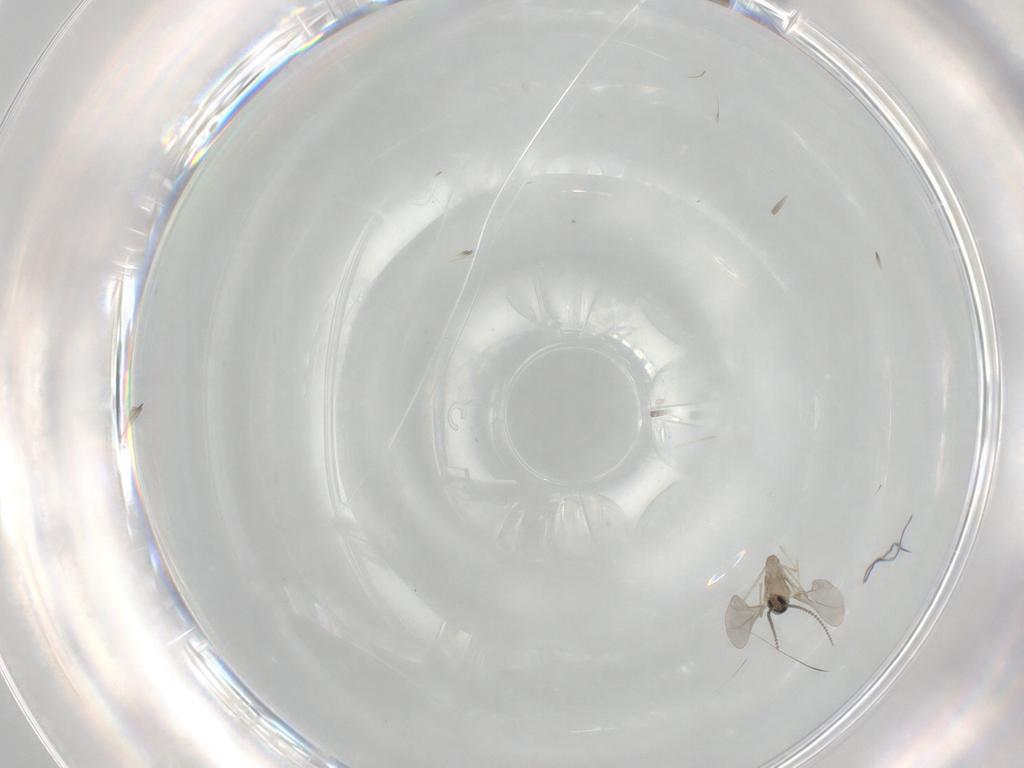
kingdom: Animalia
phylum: Arthropoda
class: Insecta
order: Diptera
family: Cecidomyiidae
